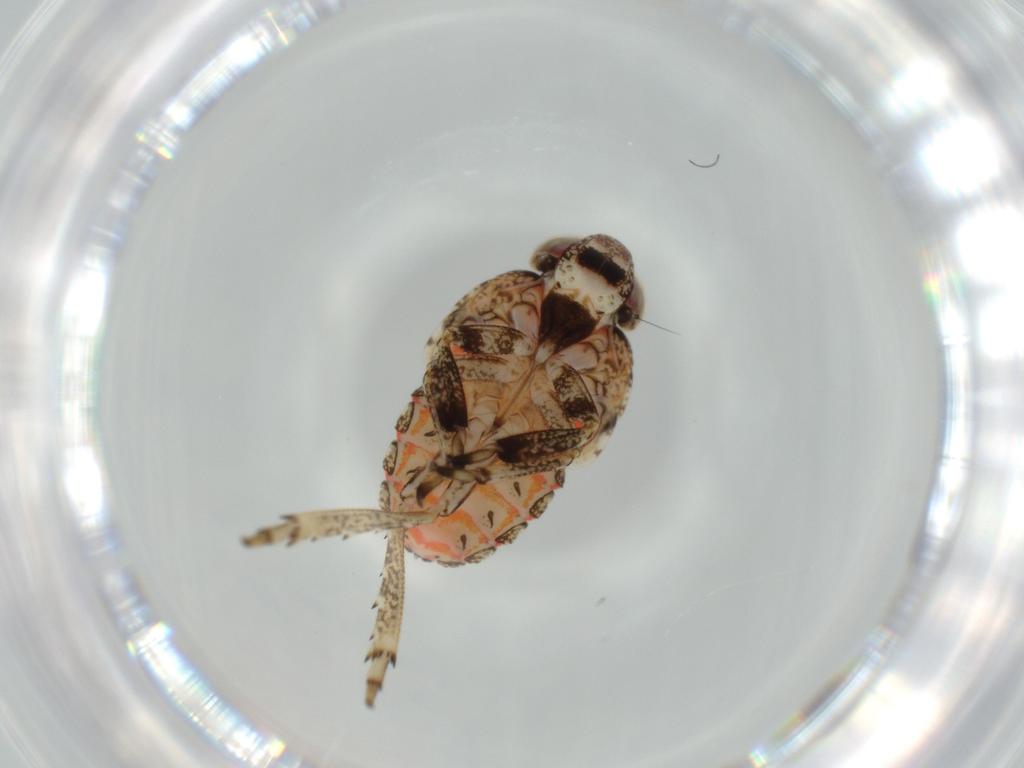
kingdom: Animalia
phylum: Arthropoda
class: Insecta
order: Hemiptera
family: Issidae
